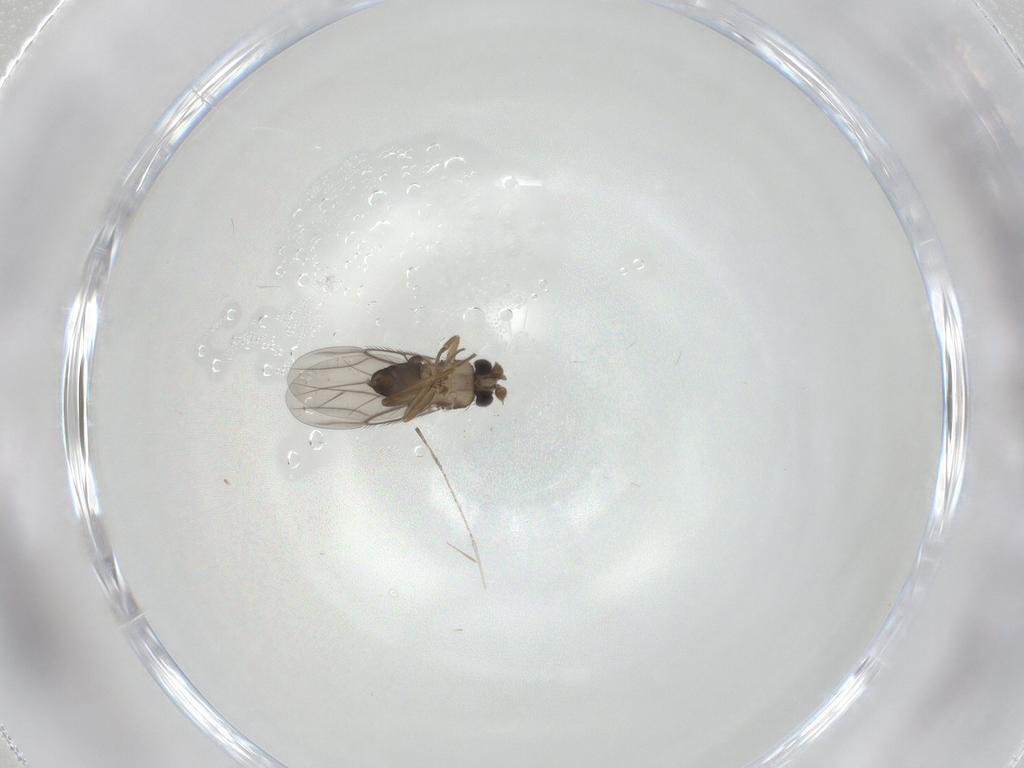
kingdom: Animalia
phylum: Arthropoda
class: Insecta
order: Diptera
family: Cecidomyiidae
